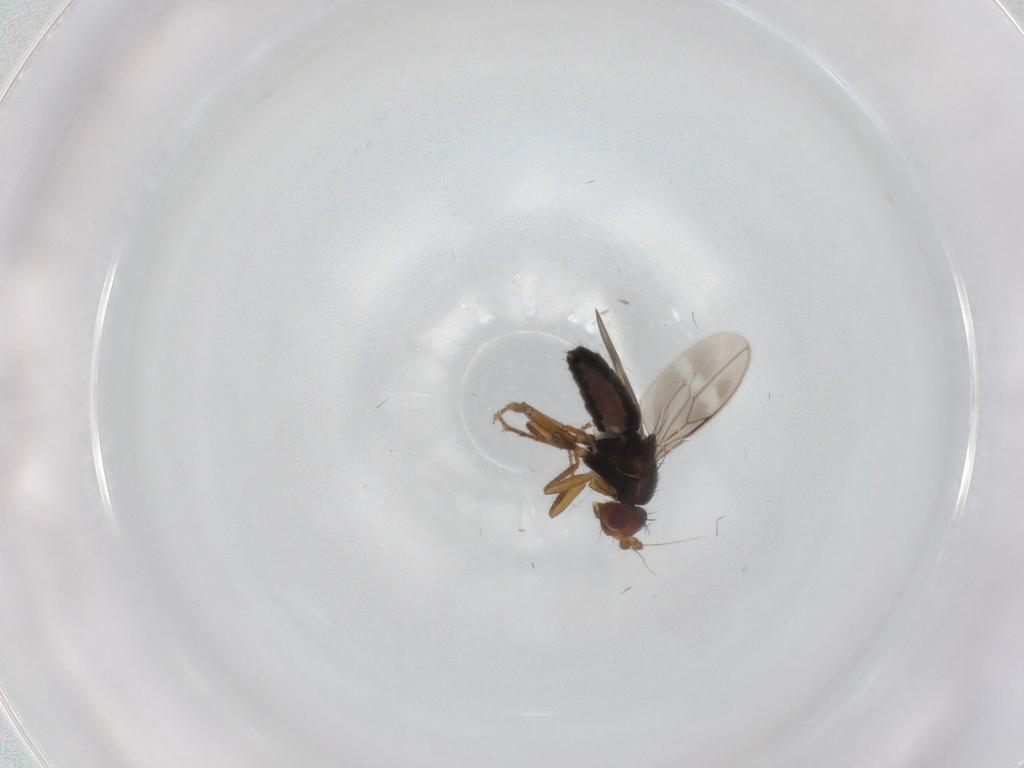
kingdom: Animalia
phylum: Arthropoda
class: Insecta
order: Diptera
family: Sphaeroceridae
